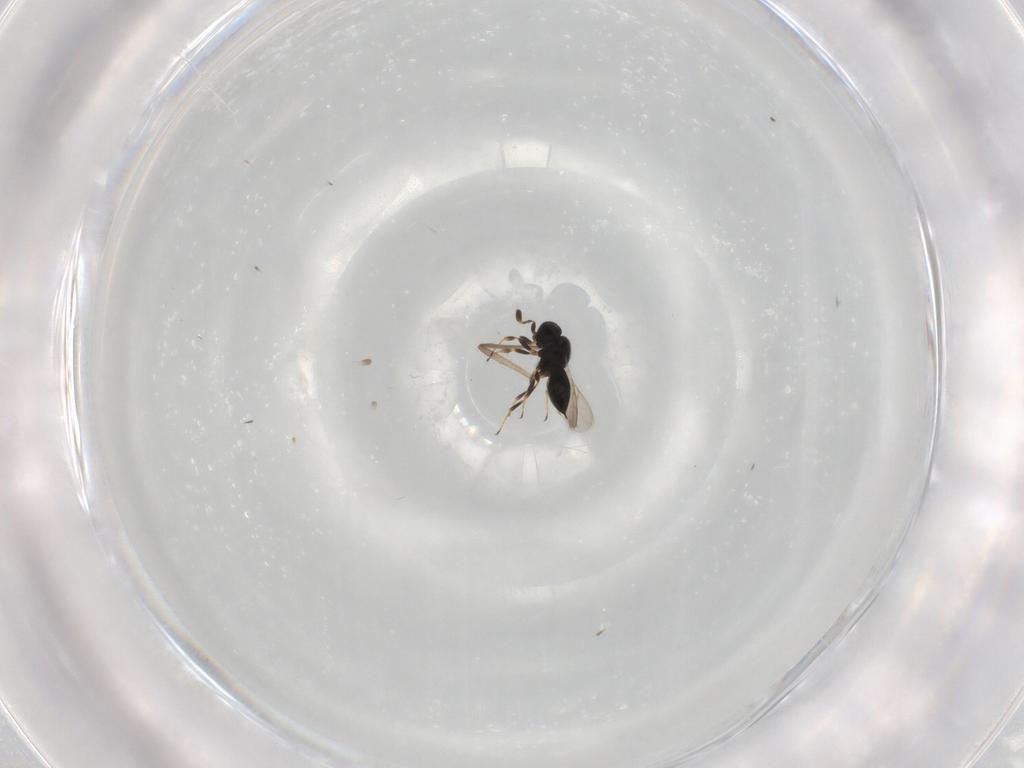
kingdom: Animalia
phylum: Arthropoda
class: Insecta
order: Hymenoptera
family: Scelionidae
